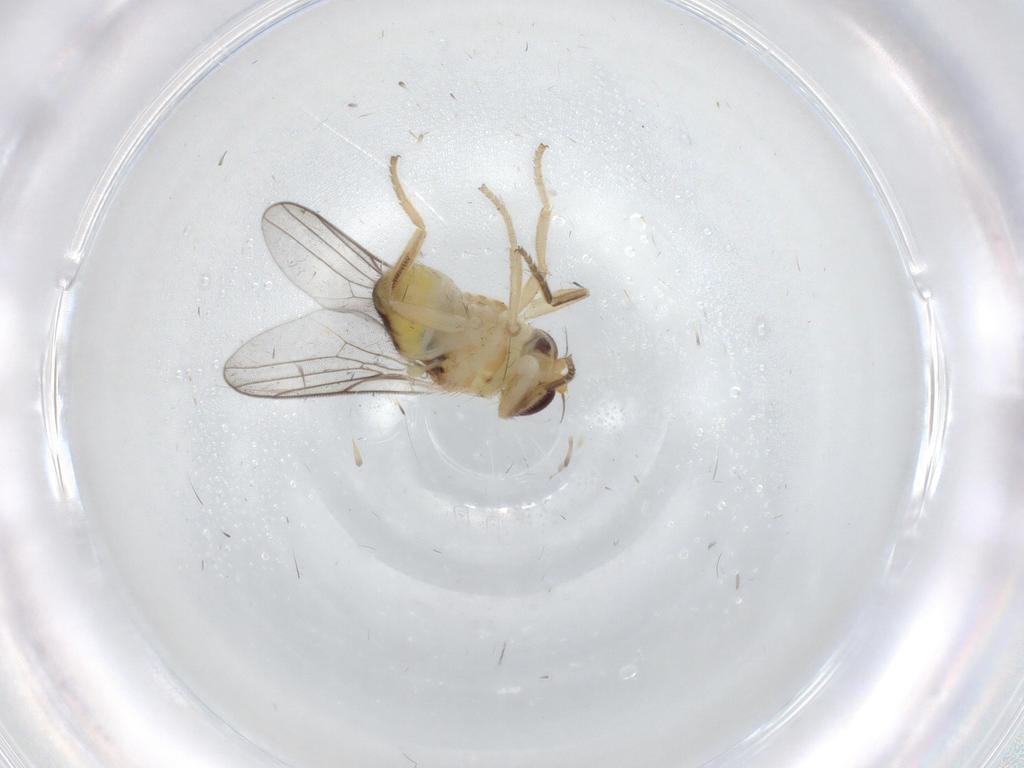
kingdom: Animalia
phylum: Arthropoda
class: Insecta
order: Diptera
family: Chloropidae
